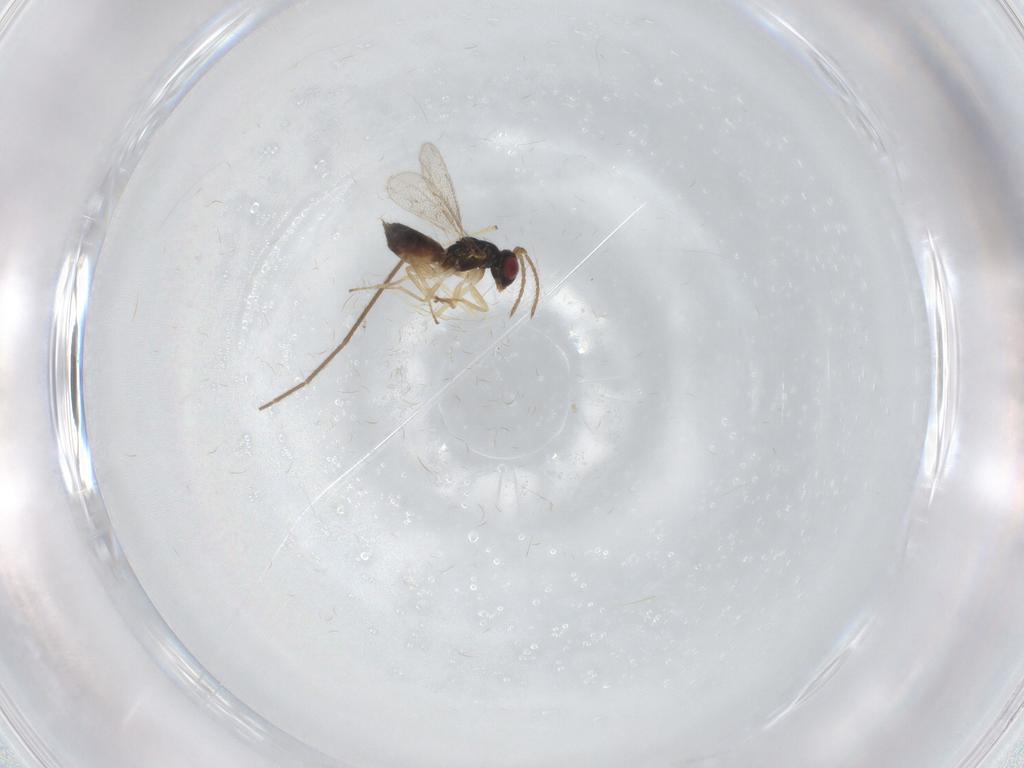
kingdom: Animalia
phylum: Arthropoda
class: Insecta
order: Hymenoptera
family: Eulophidae
